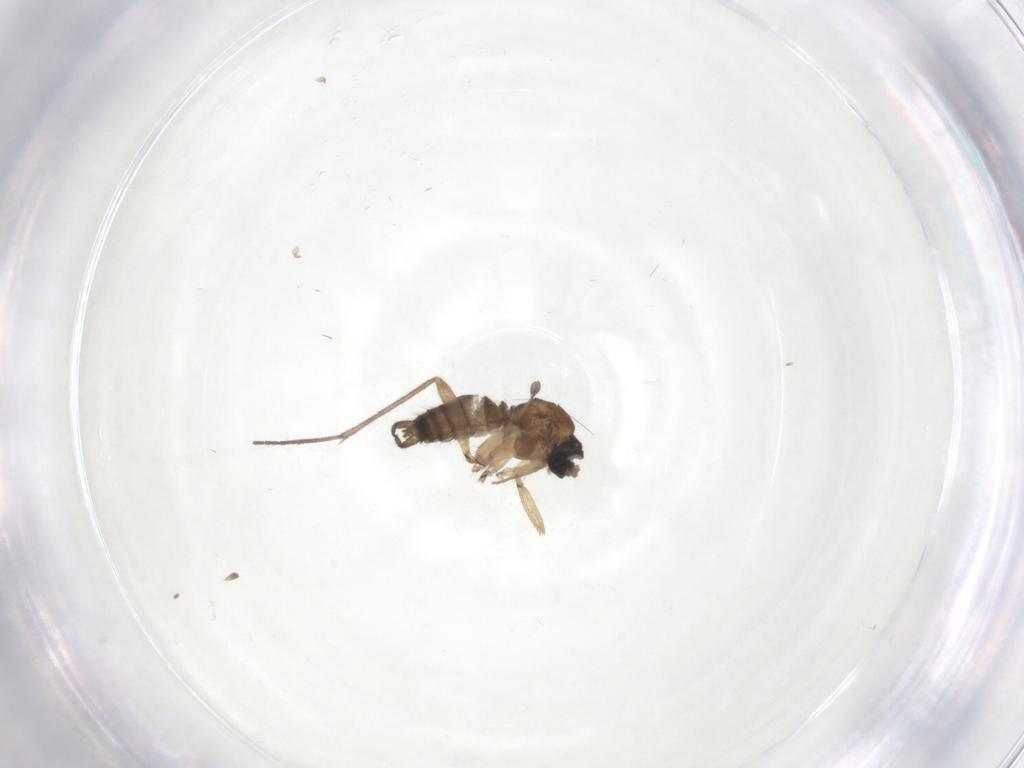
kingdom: Animalia
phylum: Arthropoda
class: Insecta
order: Diptera
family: Sciaridae
